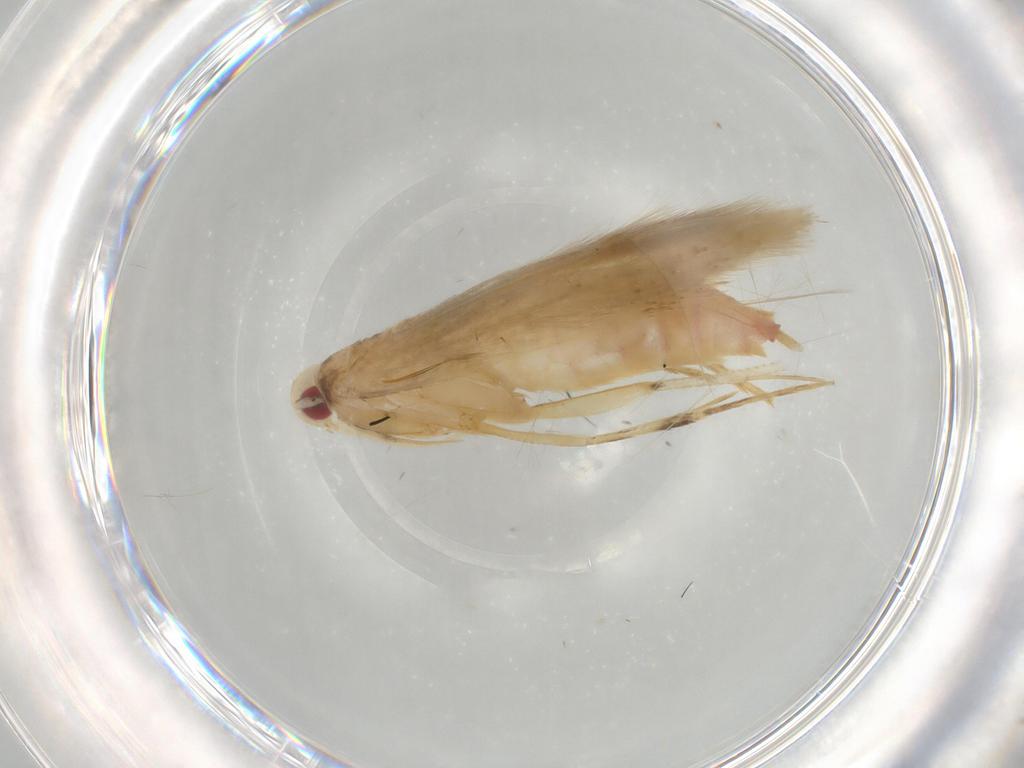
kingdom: Animalia
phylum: Arthropoda
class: Insecta
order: Lepidoptera
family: Cosmopterigidae
